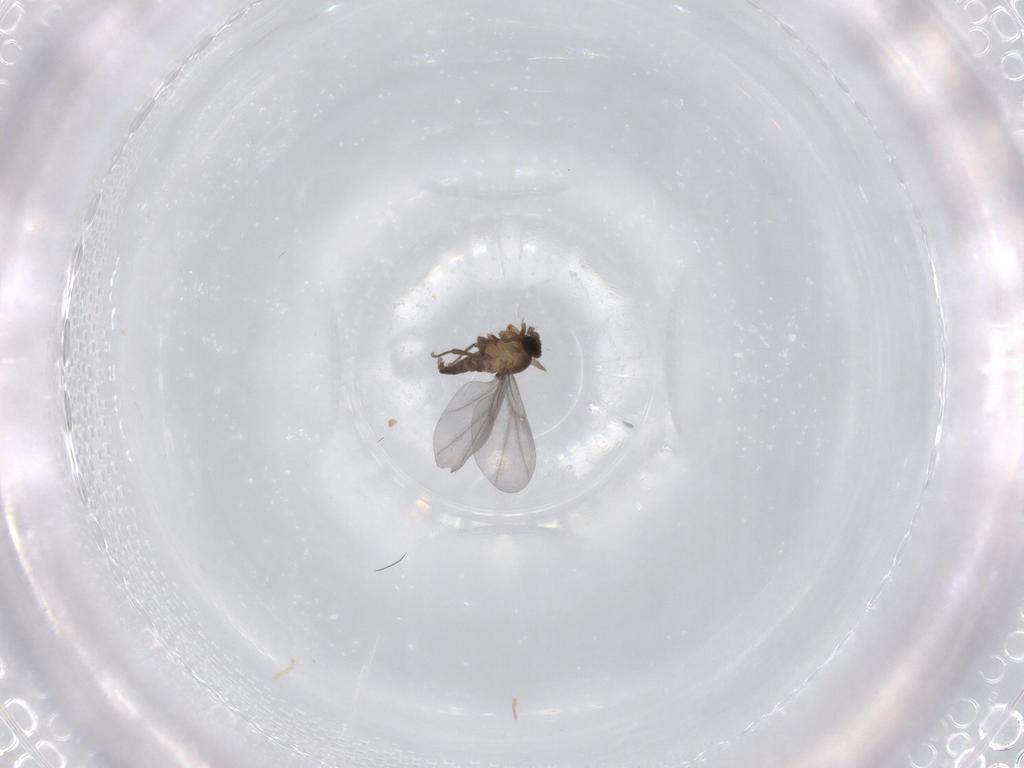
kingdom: Animalia
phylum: Arthropoda
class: Insecta
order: Diptera
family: Phoridae
